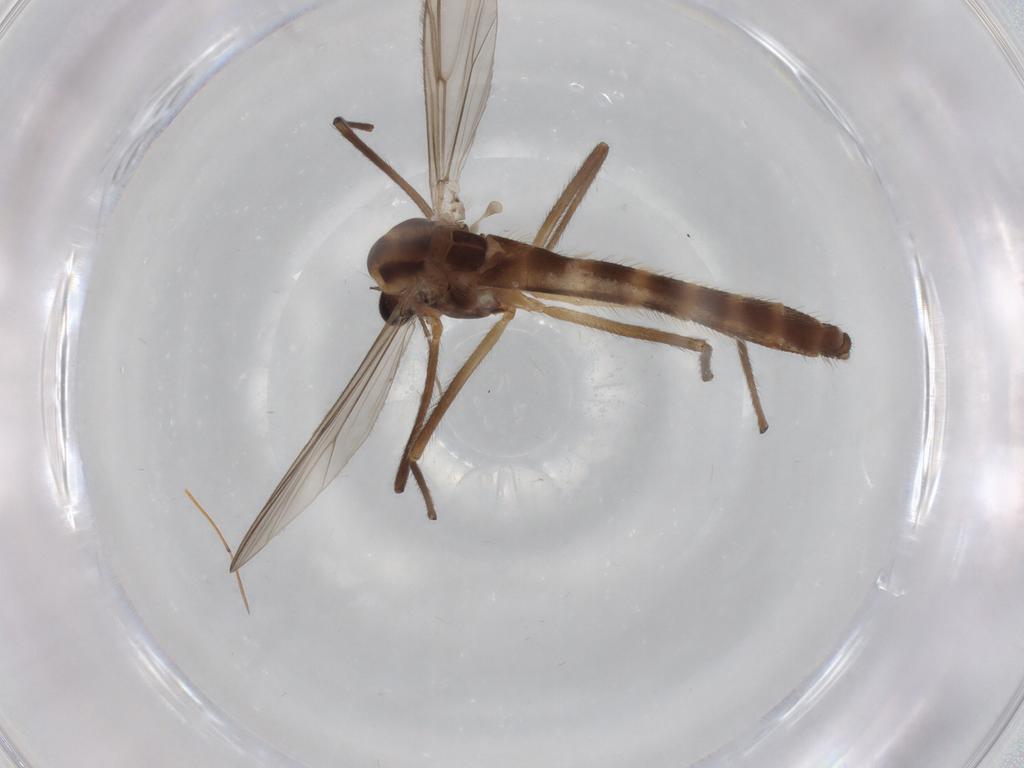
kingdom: Animalia
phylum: Arthropoda
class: Insecta
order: Diptera
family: Chironomidae
